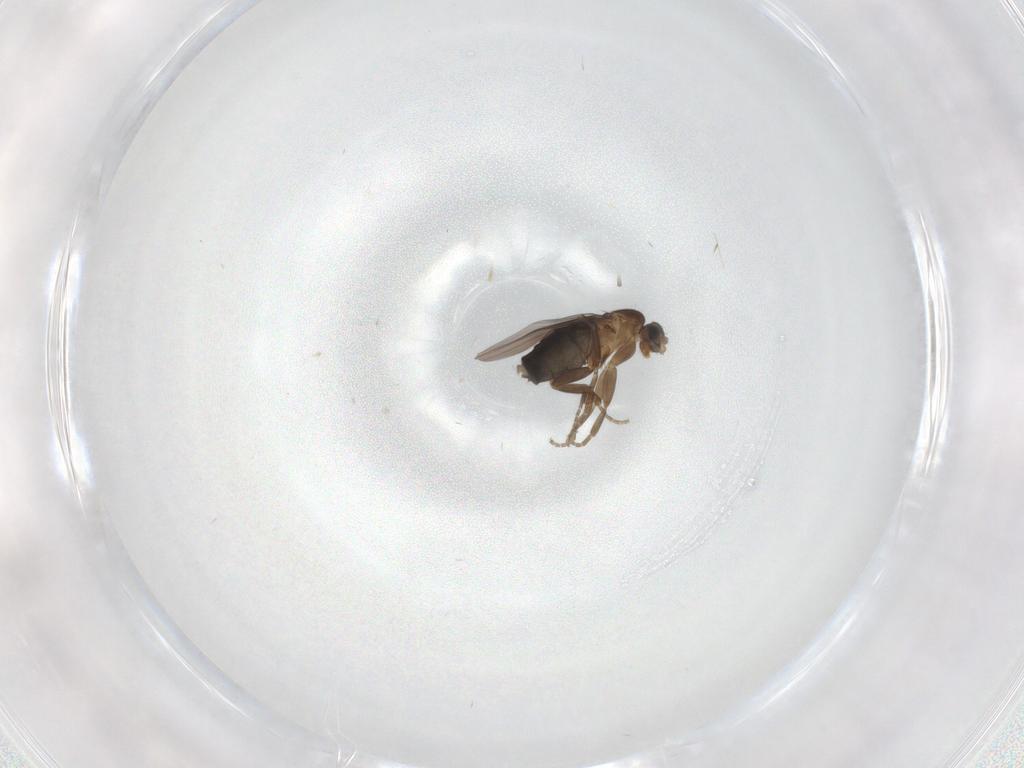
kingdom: Animalia
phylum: Arthropoda
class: Insecta
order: Diptera
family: Cecidomyiidae
